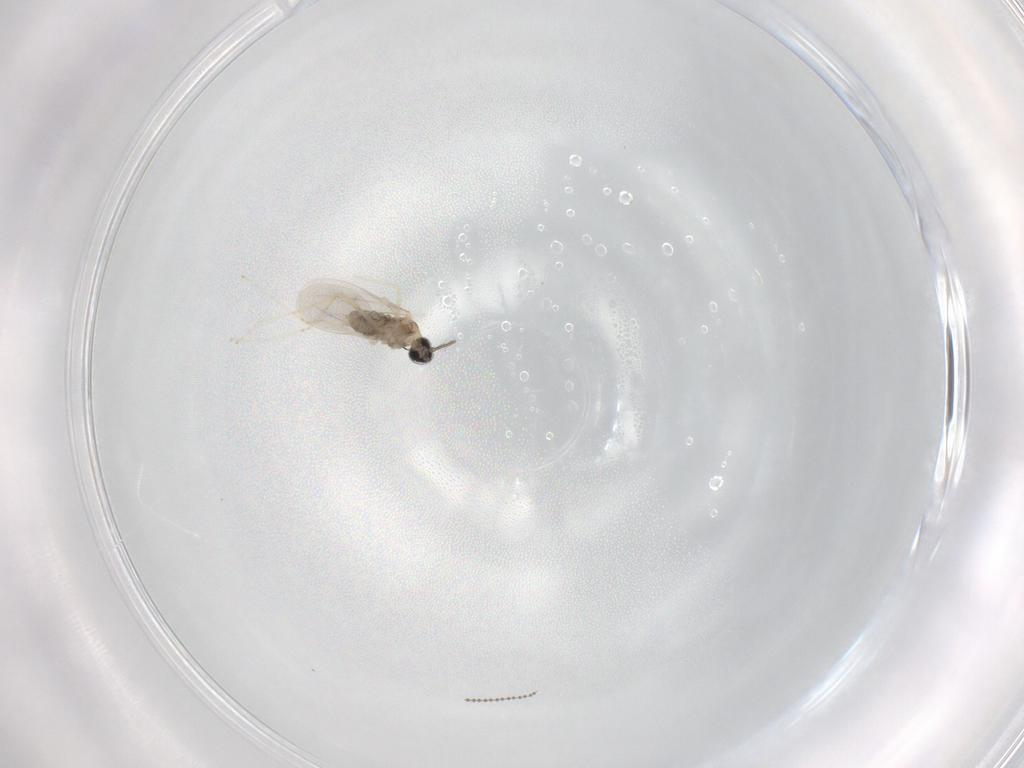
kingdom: Animalia
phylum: Arthropoda
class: Insecta
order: Diptera
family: Cecidomyiidae
